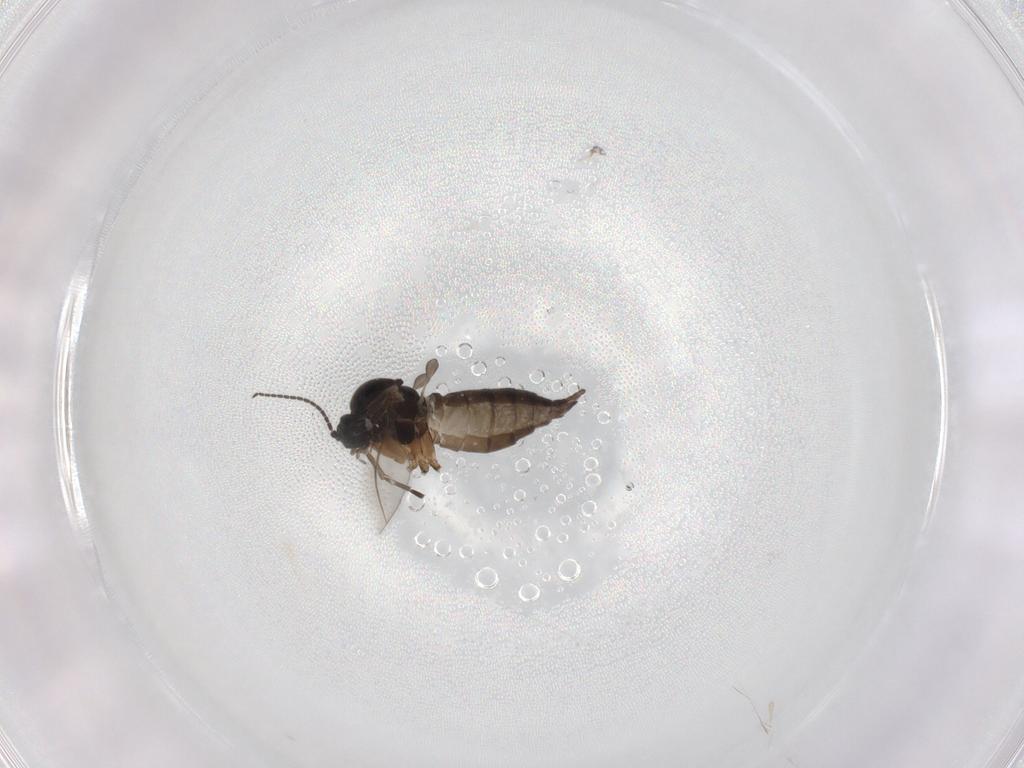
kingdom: Animalia
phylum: Arthropoda
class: Insecta
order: Diptera
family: Sciaridae
